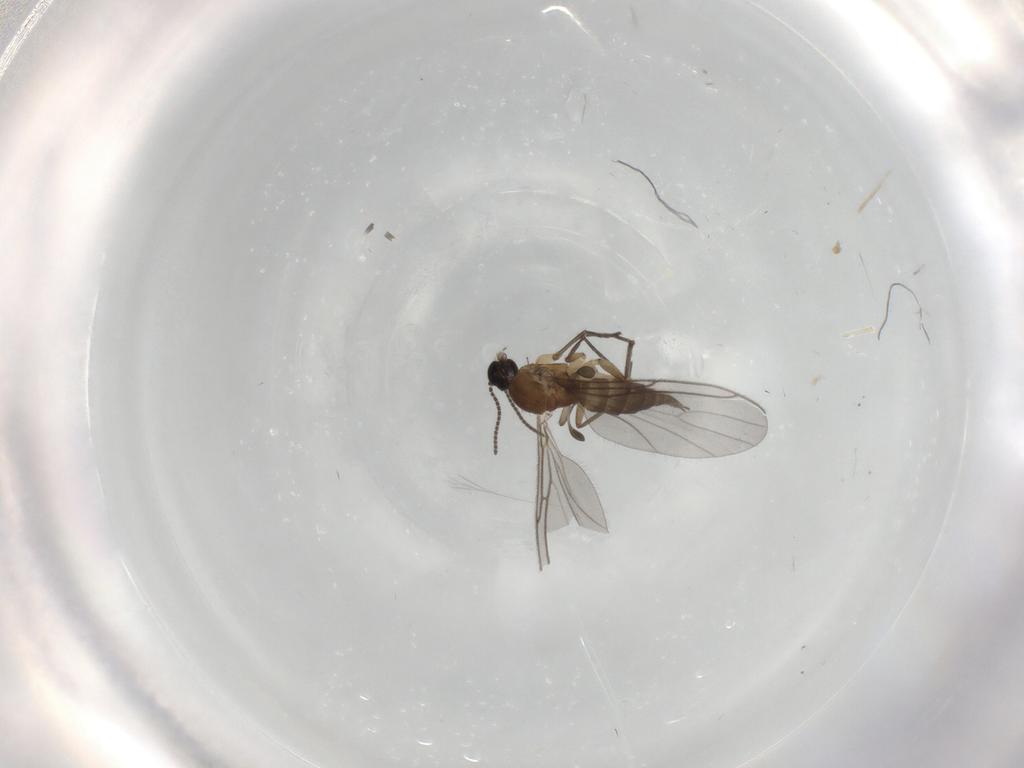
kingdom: Animalia
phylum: Arthropoda
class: Insecta
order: Diptera
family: Sciaridae
